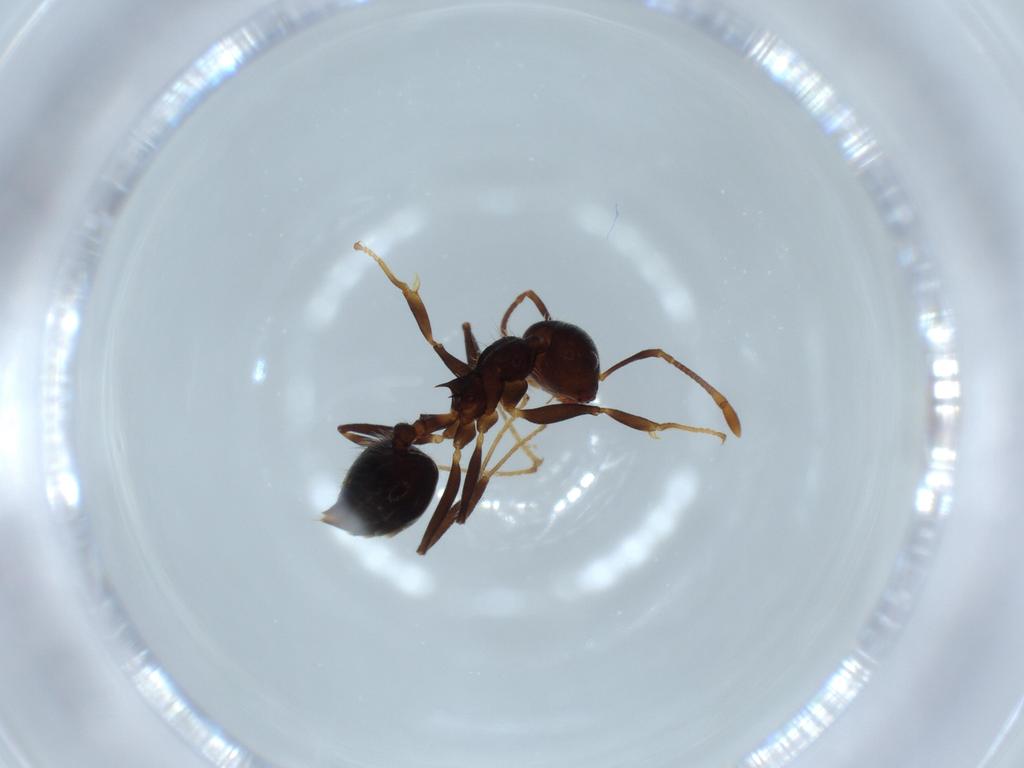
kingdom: Animalia
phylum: Arthropoda
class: Insecta
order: Hymenoptera
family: Formicidae
